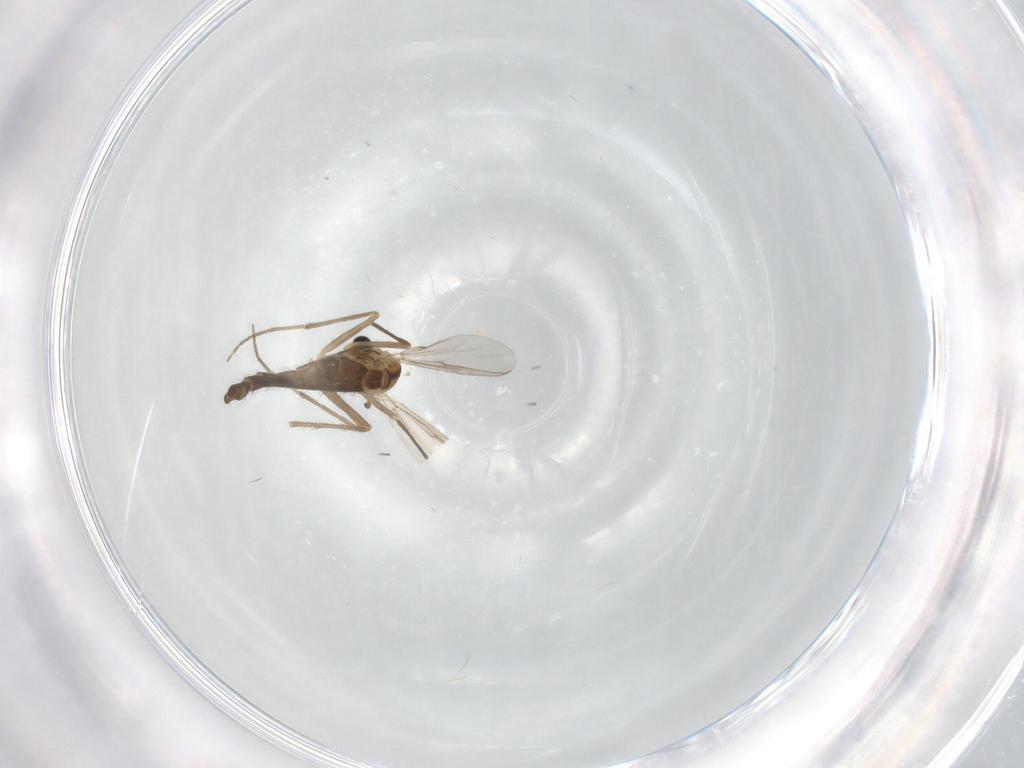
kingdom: Animalia
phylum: Arthropoda
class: Insecta
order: Diptera
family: Chironomidae
